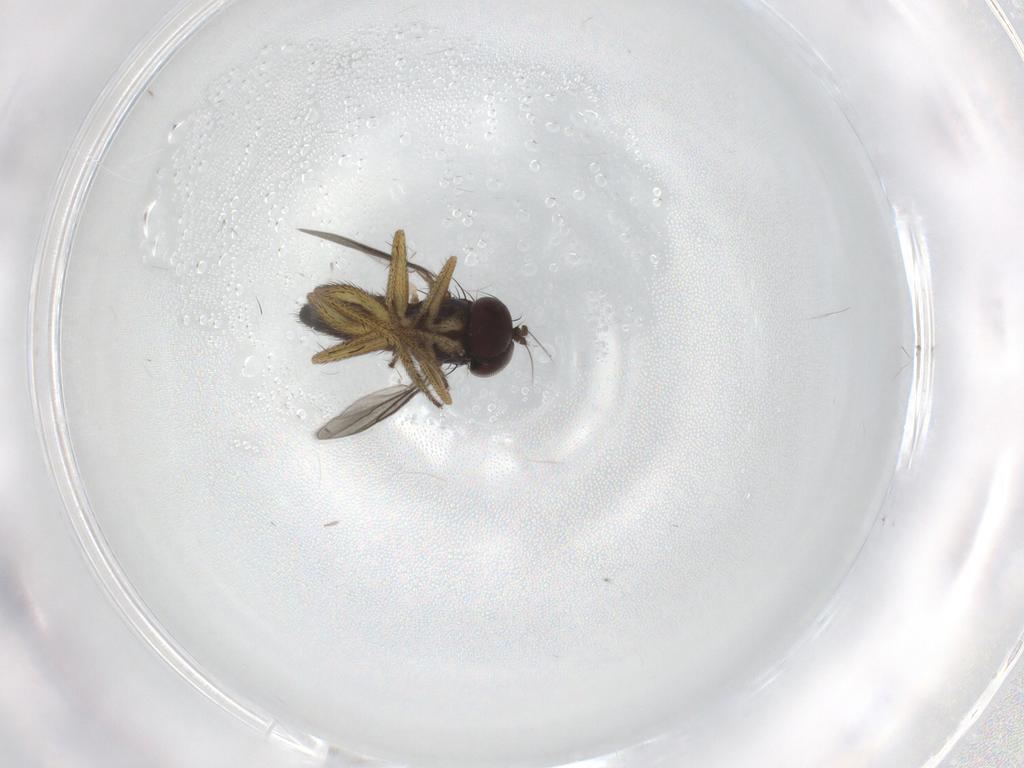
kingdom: Animalia
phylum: Arthropoda
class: Insecta
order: Diptera
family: Dolichopodidae
